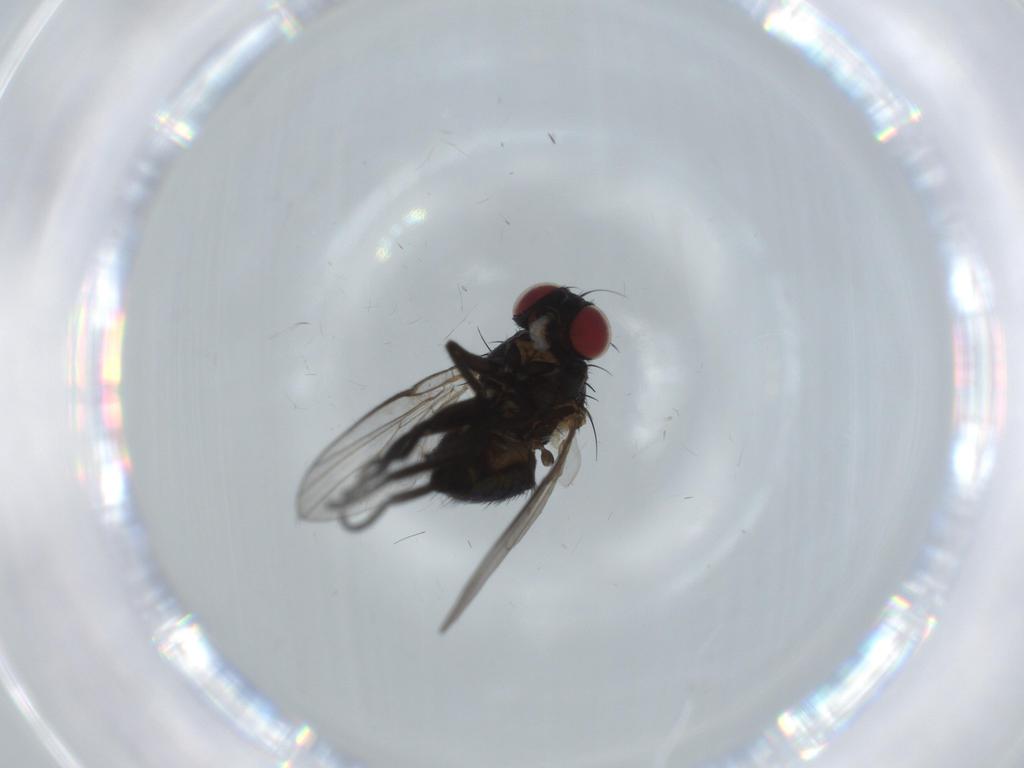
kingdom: Animalia
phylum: Arthropoda
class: Insecta
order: Diptera
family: Agromyzidae
